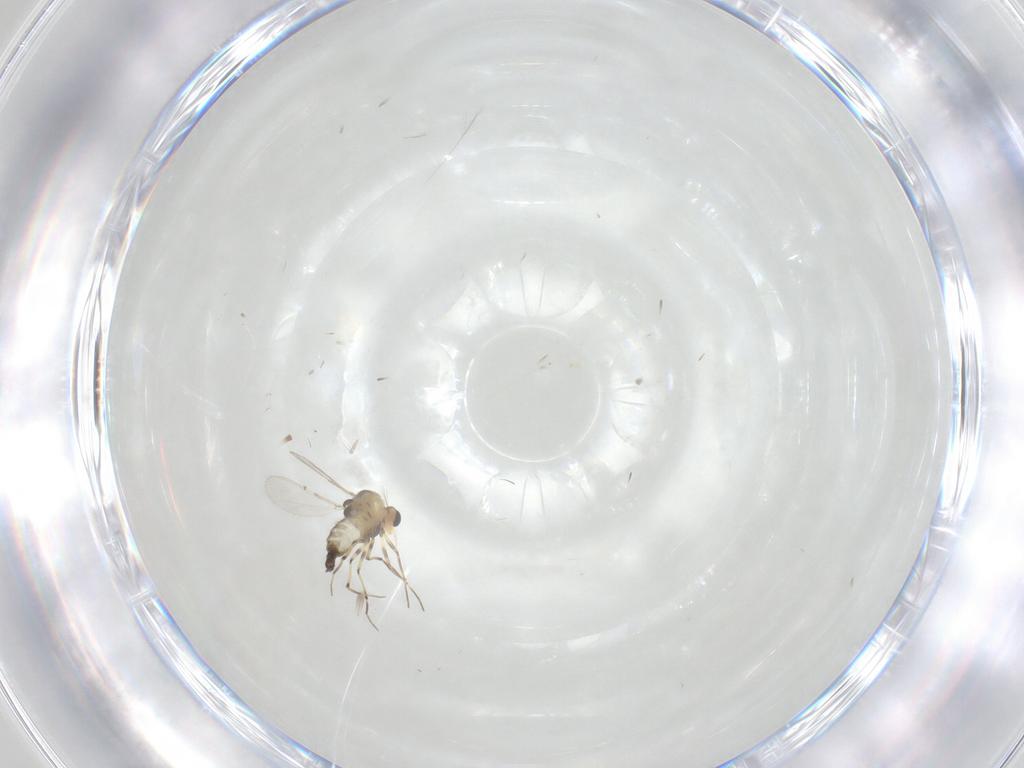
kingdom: Animalia
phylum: Arthropoda
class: Insecta
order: Diptera
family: Sciaridae
